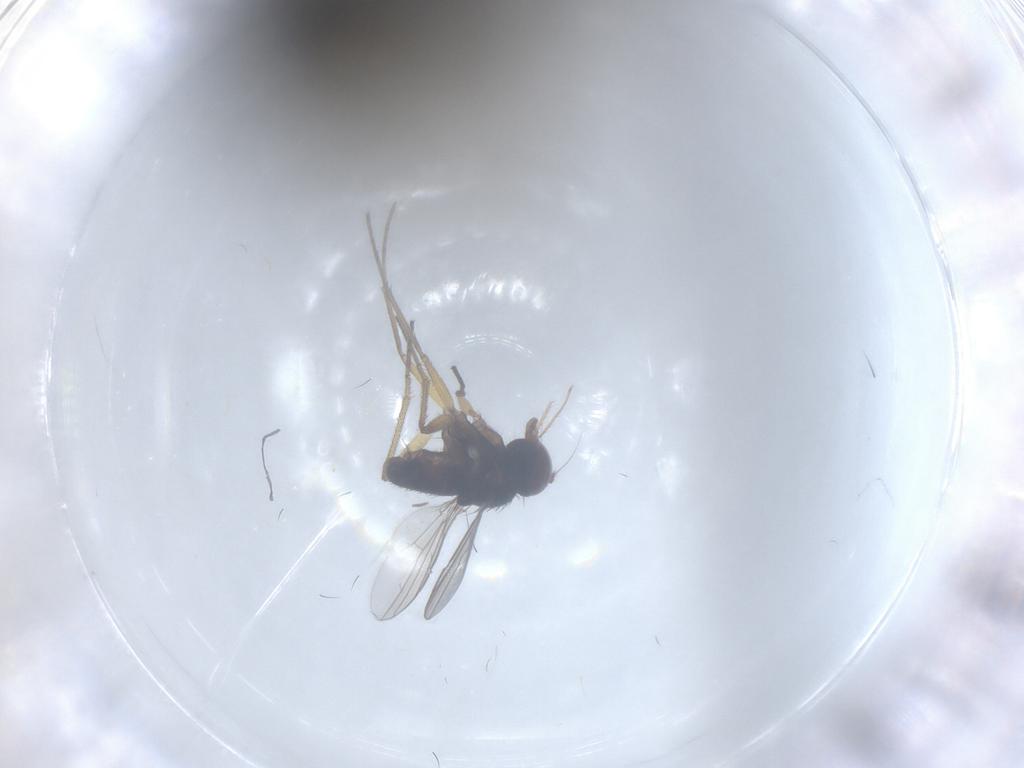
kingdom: Animalia
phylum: Arthropoda
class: Insecta
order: Diptera
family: Dolichopodidae
